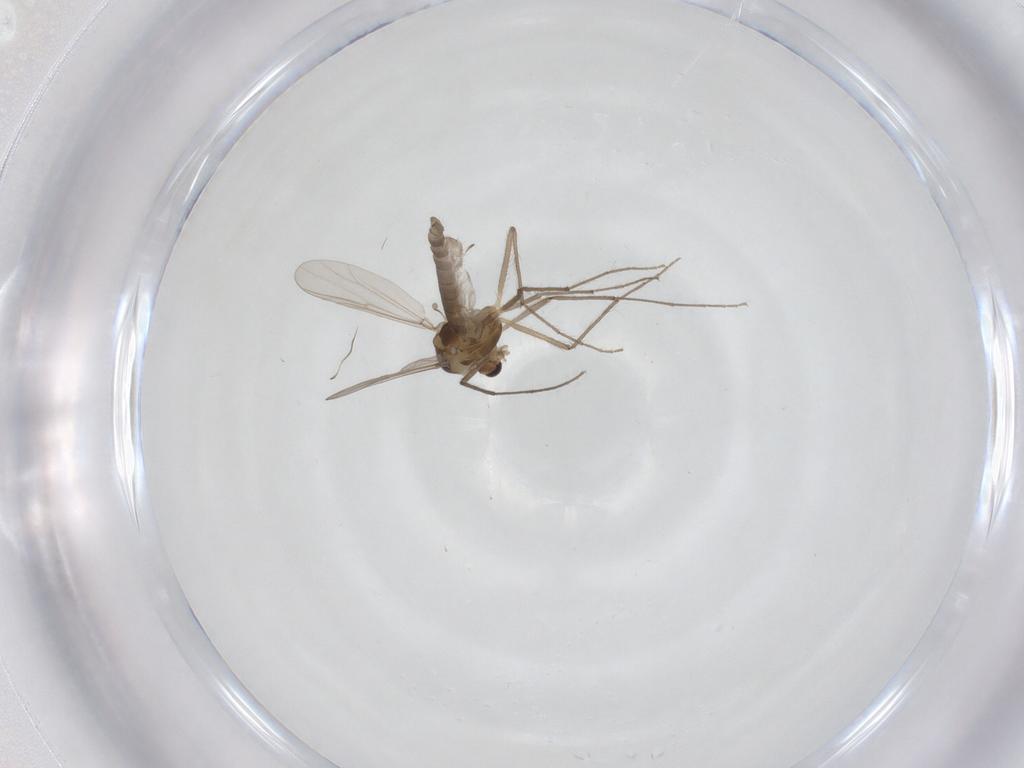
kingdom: Animalia
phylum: Arthropoda
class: Insecta
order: Diptera
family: Chironomidae
